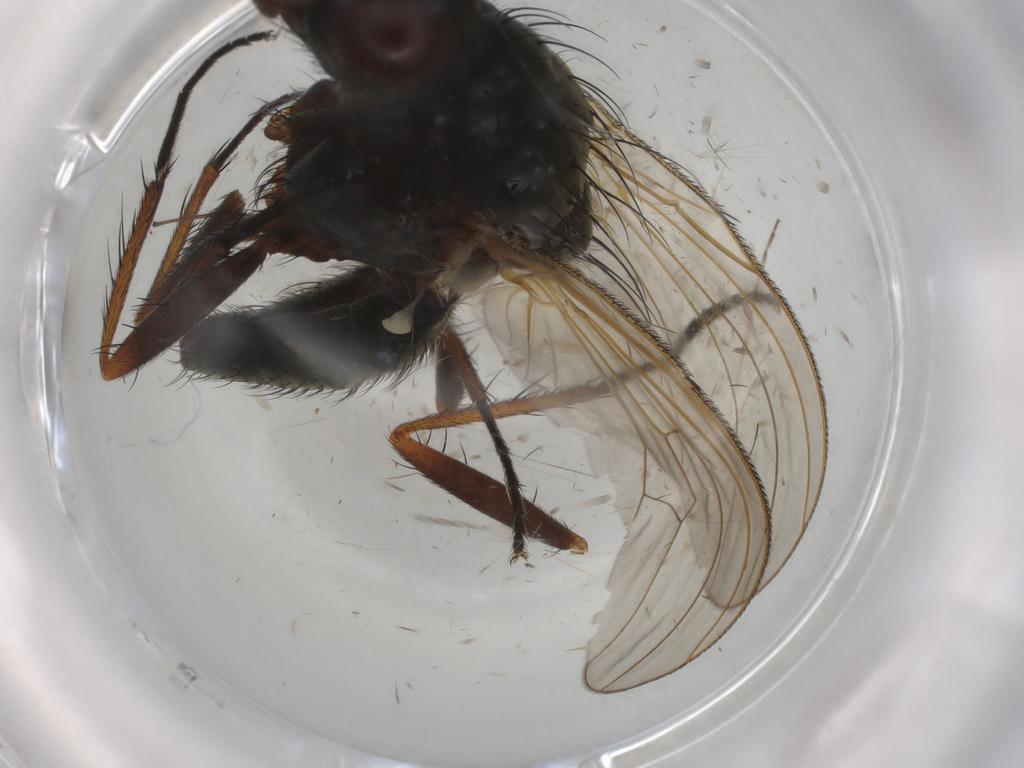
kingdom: Animalia
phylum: Arthropoda
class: Insecta
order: Diptera
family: Anthomyiidae
